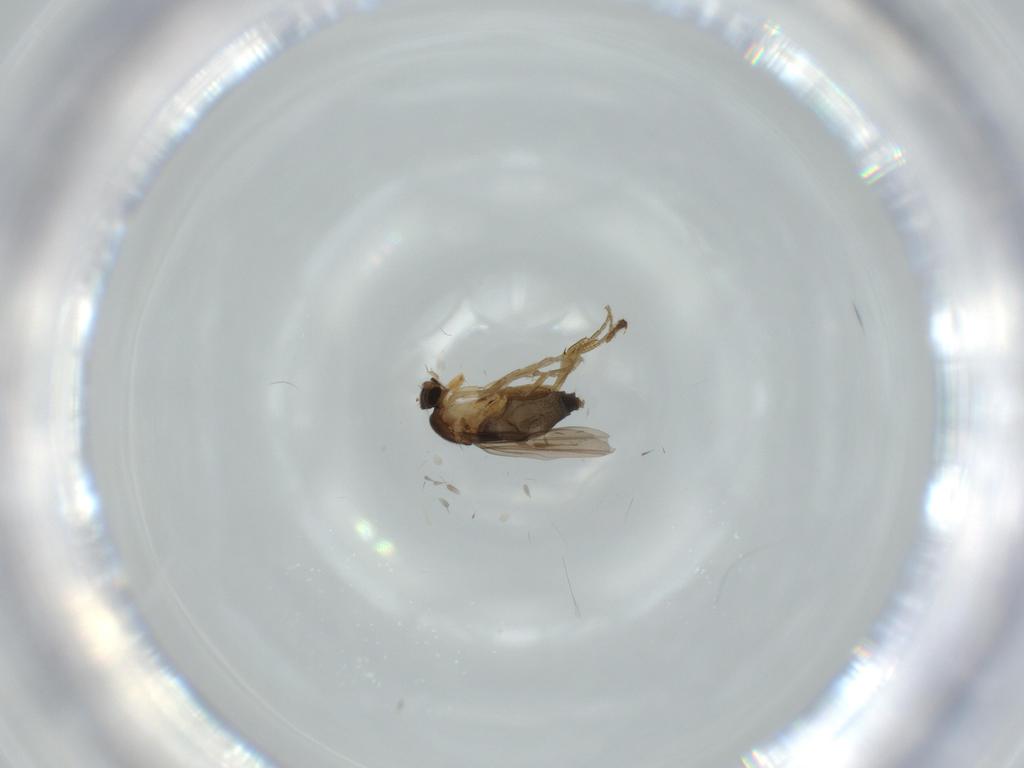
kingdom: Animalia
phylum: Arthropoda
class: Insecta
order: Diptera
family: Phoridae
